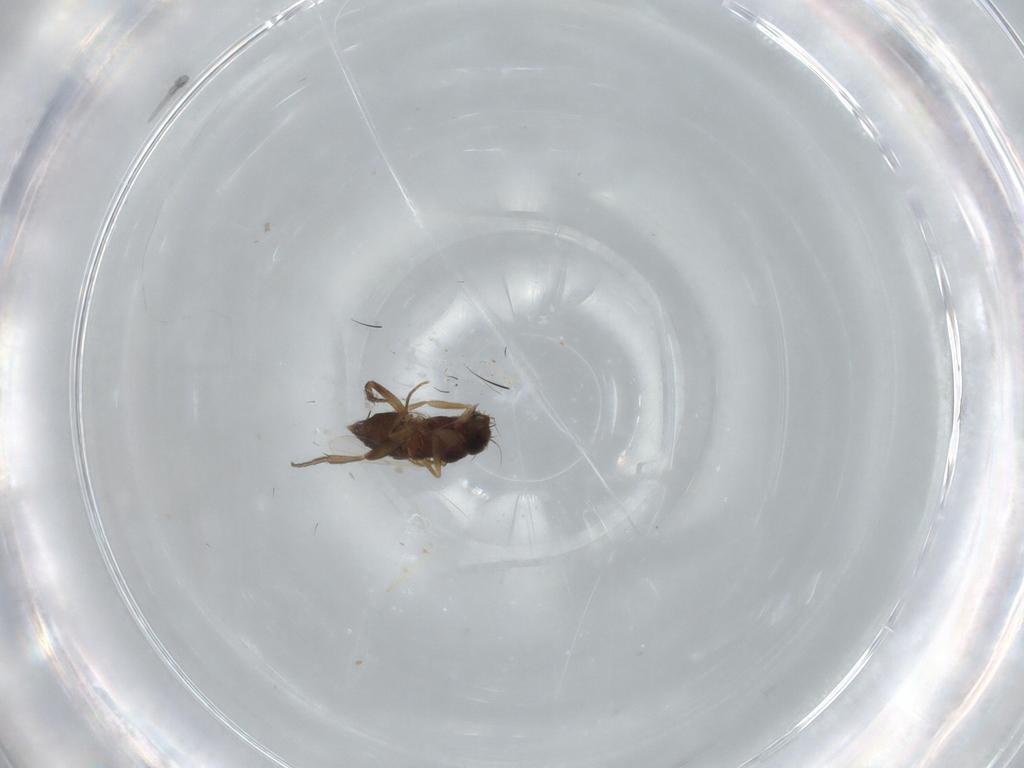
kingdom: Animalia
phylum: Arthropoda
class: Insecta
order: Diptera
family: Phoridae
